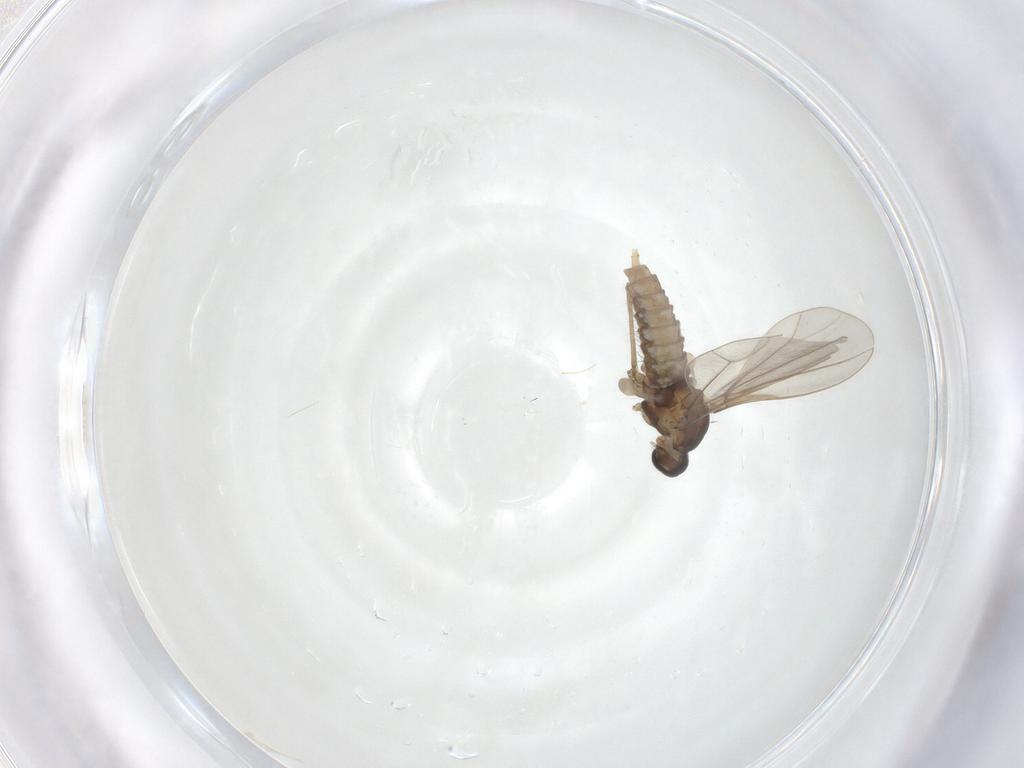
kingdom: Animalia
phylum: Arthropoda
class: Insecta
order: Diptera
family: Cecidomyiidae
